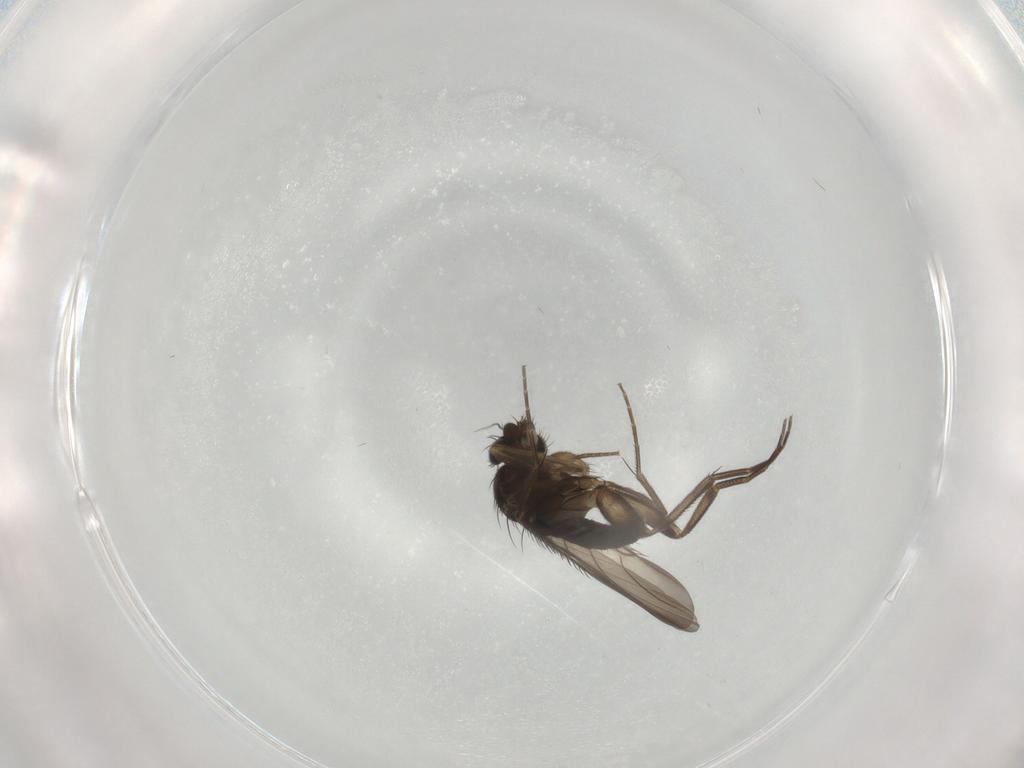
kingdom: Animalia
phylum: Arthropoda
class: Insecta
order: Diptera
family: Phoridae
